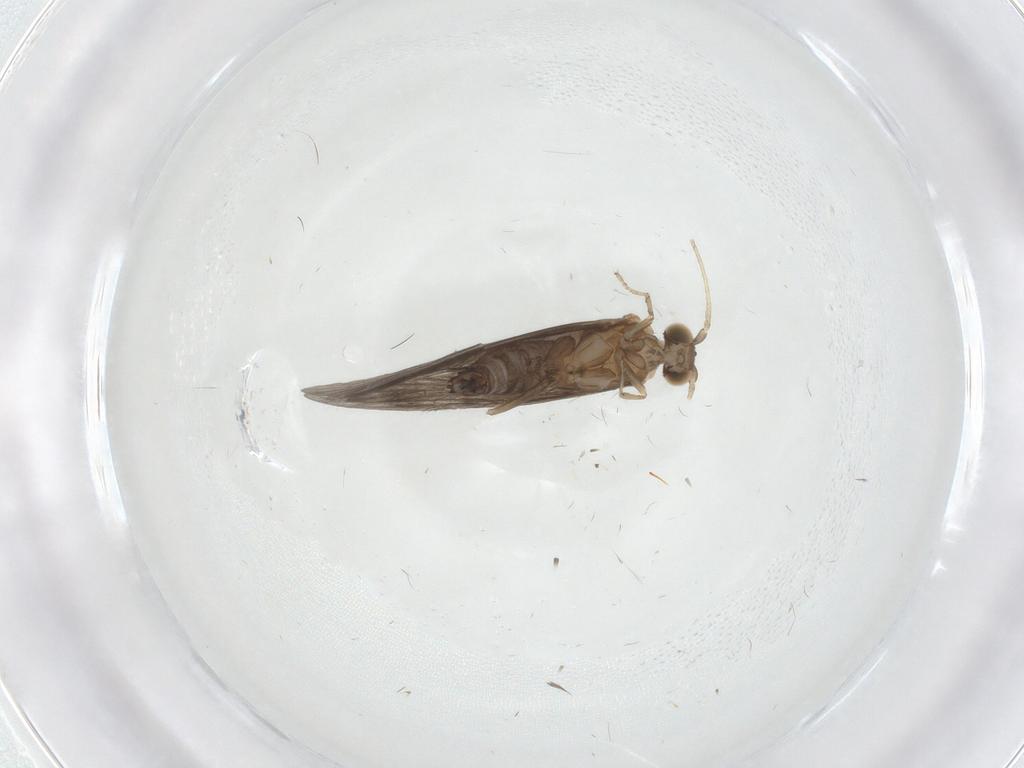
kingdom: Animalia
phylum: Arthropoda
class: Insecta
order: Trichoptera
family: Glossosomatidae
